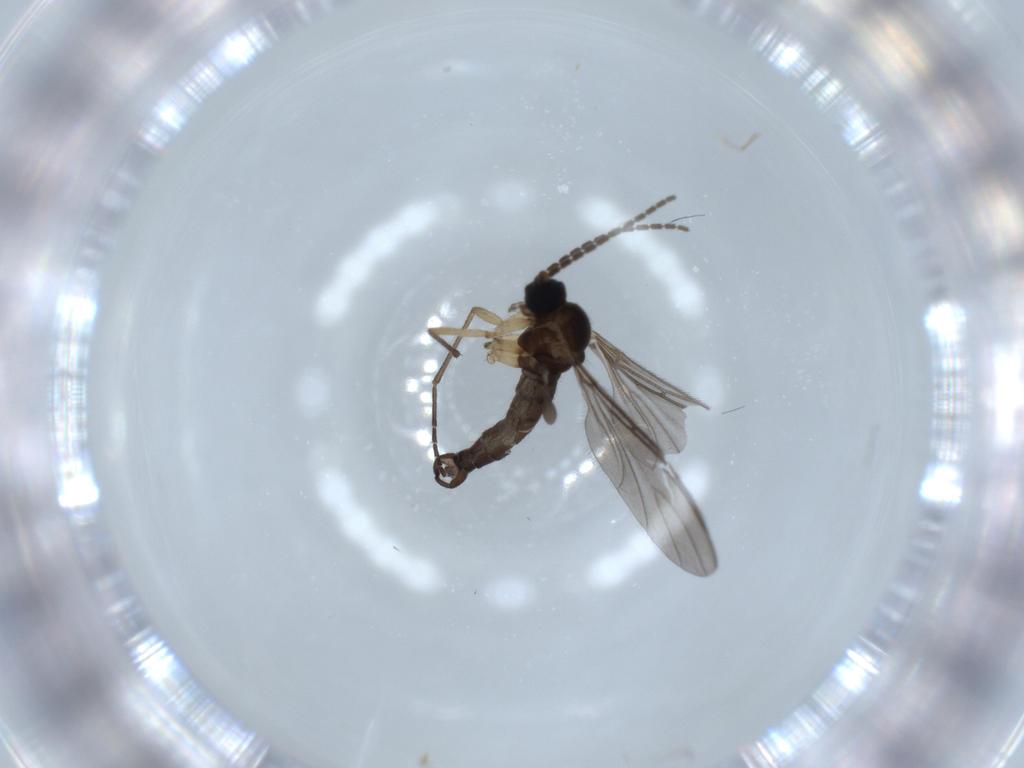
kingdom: Animalia
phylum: Arthropoda
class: Insecta
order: Diptera
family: Sciaridae
